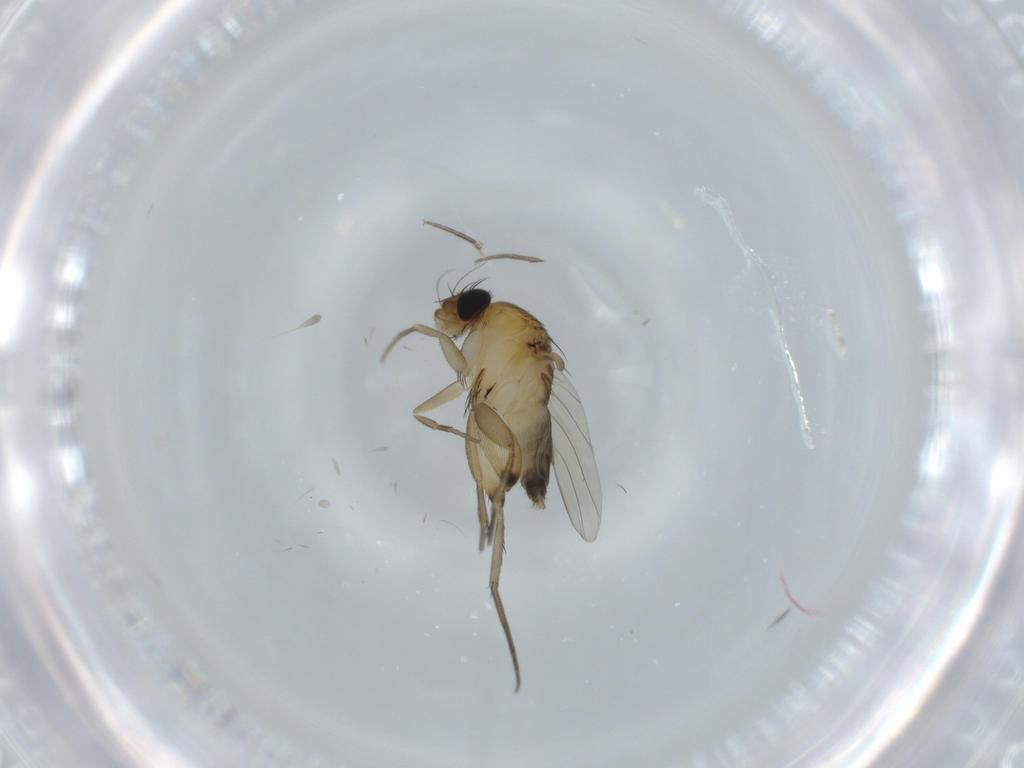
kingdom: Animalia
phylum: Arthropoda
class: Insecta
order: Diptera
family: Phoridae
